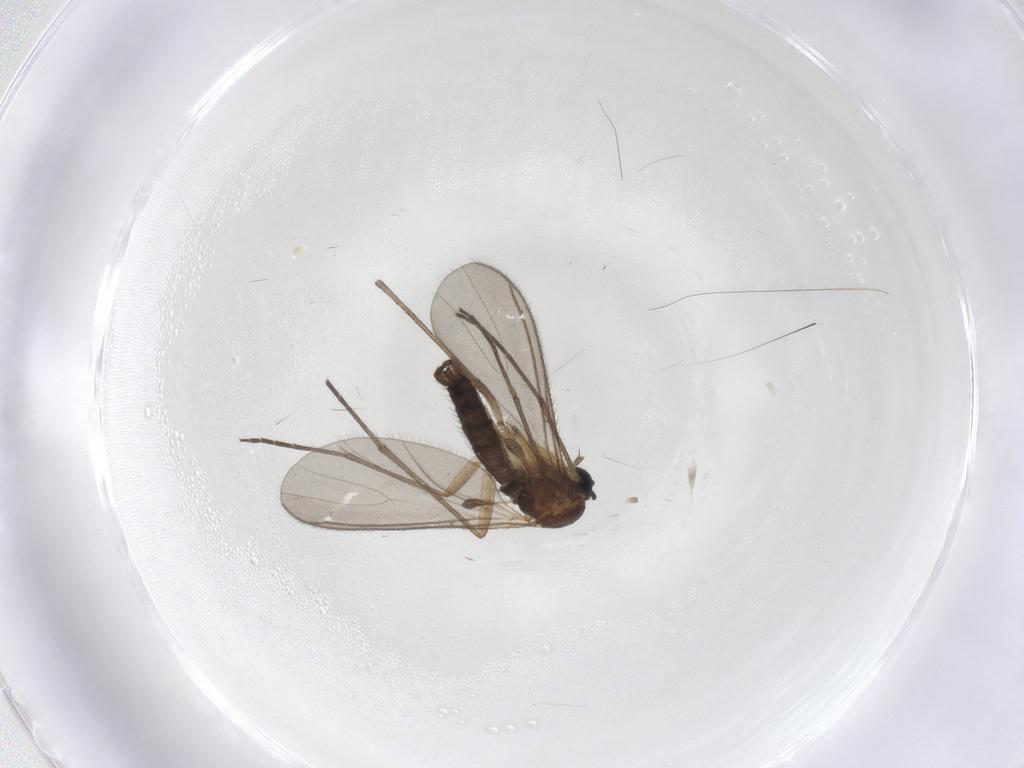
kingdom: Animalia
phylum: Arthropoda
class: Insecta
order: Diptera
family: Sciaridae
